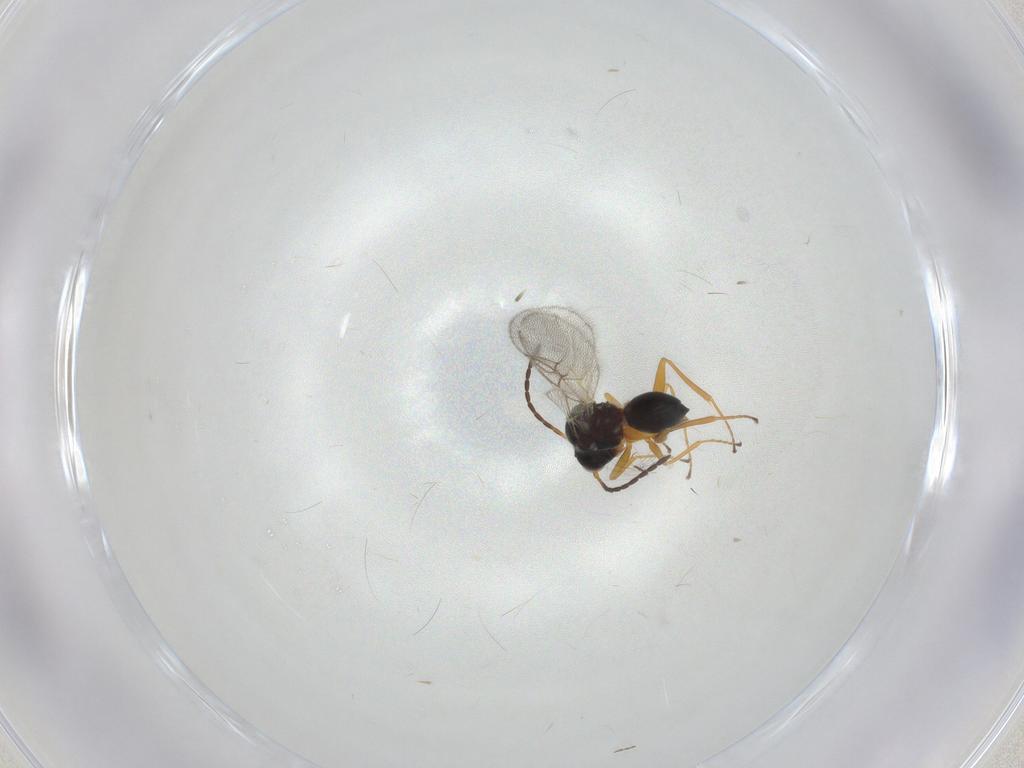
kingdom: Animalia
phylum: Arthropoda
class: Insecta
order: Hymenoptera
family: Figitidae
